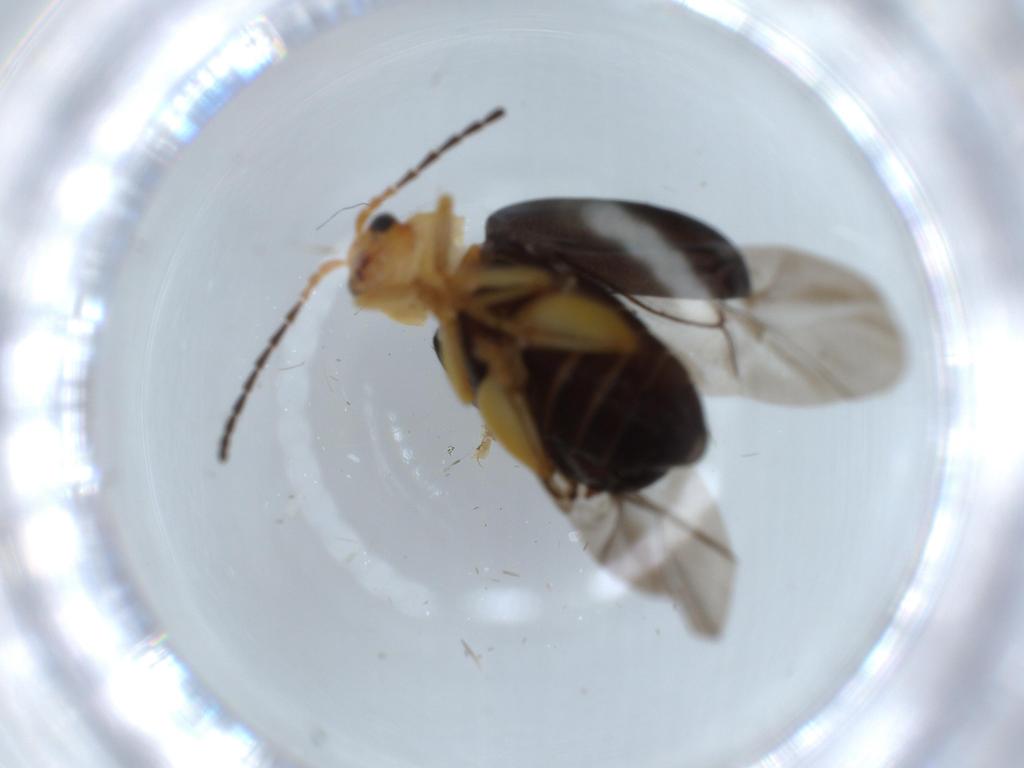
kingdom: Animalia
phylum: Arthropoda
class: Insecta
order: Coleoptera
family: Chrysomelidae
